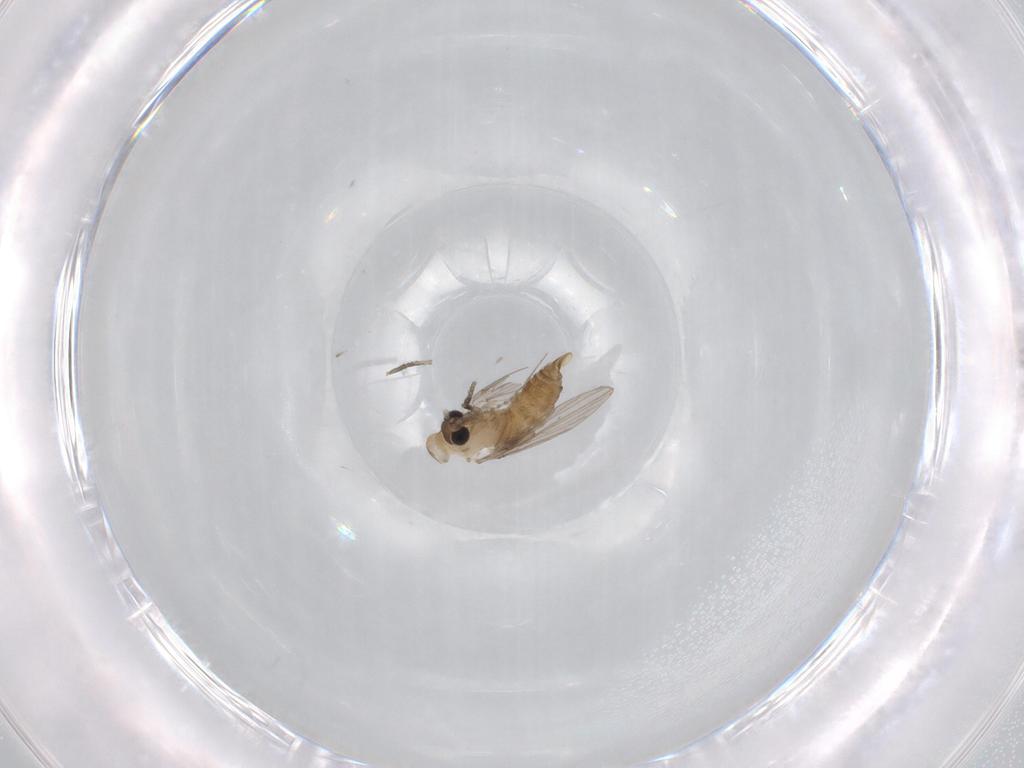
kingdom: Animalia
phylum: Arthropoda
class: Insecta
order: Diptera
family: Psychodidae
